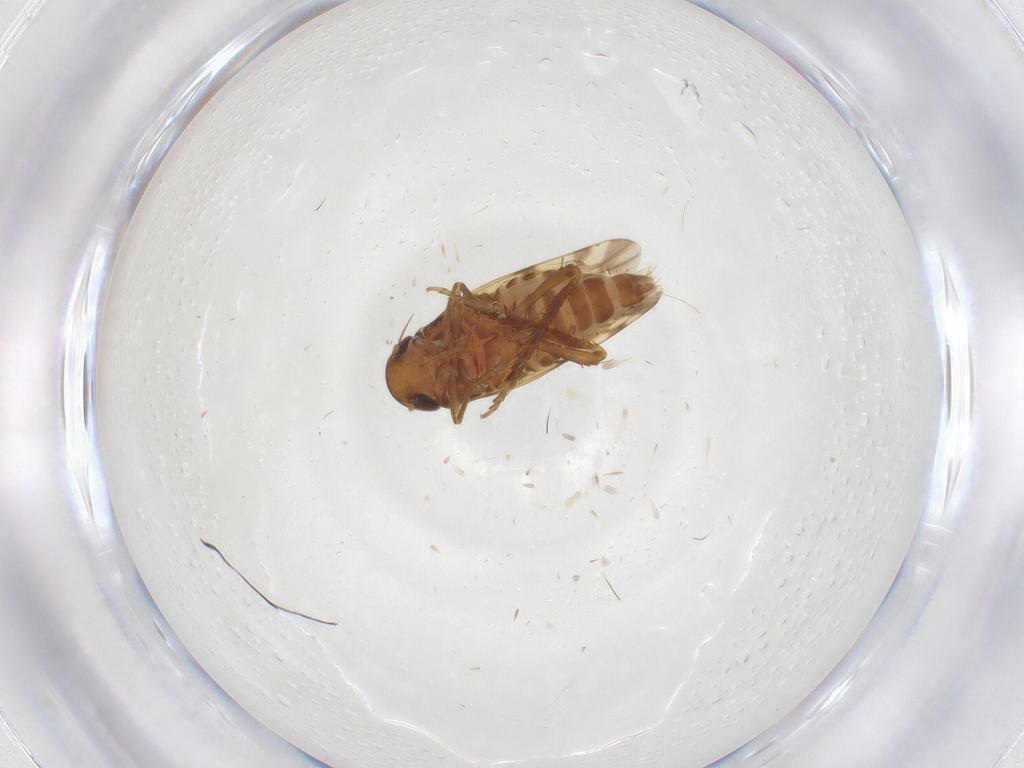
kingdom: Animalia
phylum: Arthropoda
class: Insecta
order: Hemiptera
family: Cicadellidae
